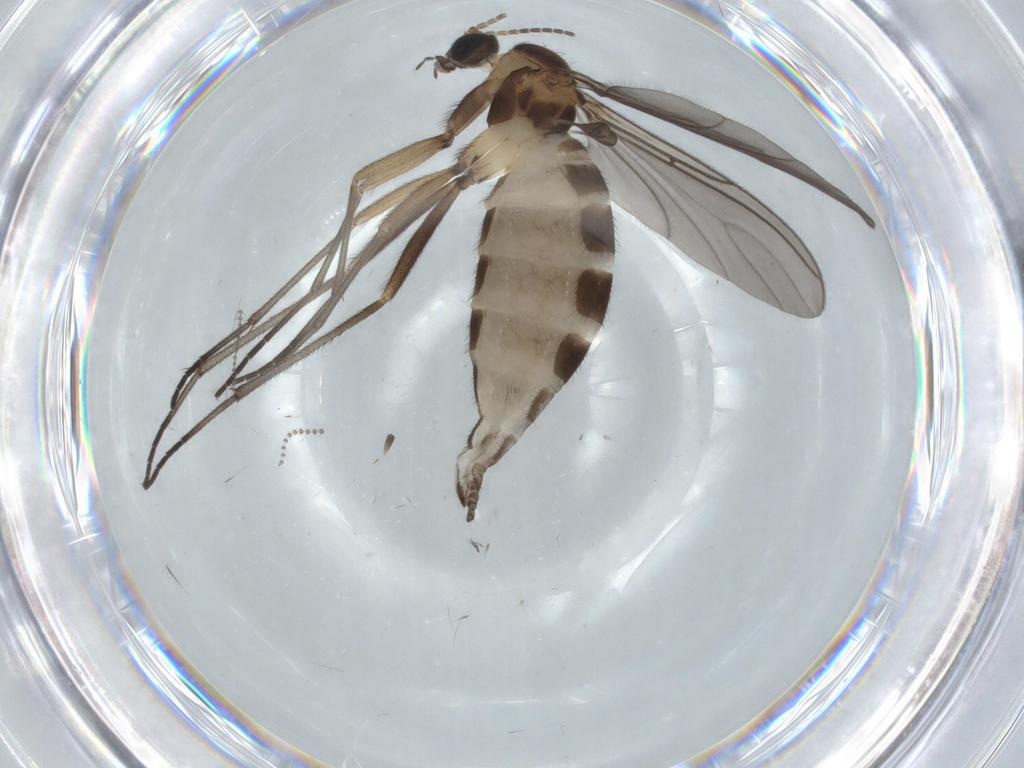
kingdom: Animalia
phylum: Arthropoda
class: Insecta
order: Diptera
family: Sciaridae
